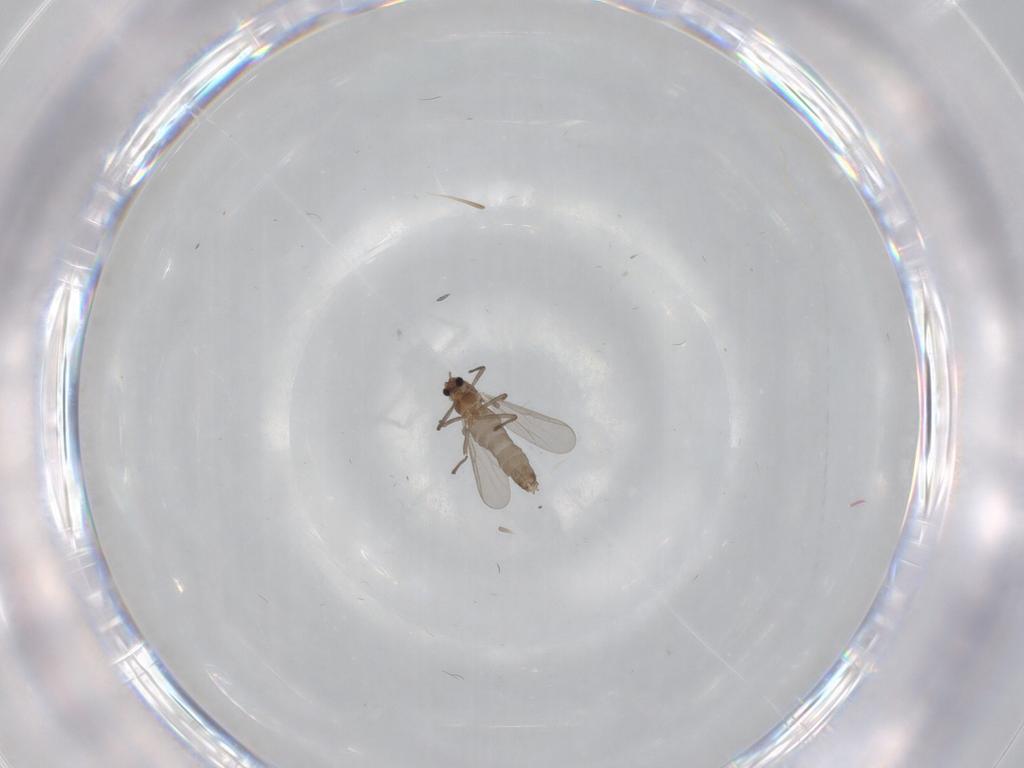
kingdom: Animalia
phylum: Arthropoda
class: Insecta
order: Diptera
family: Chironomidae
